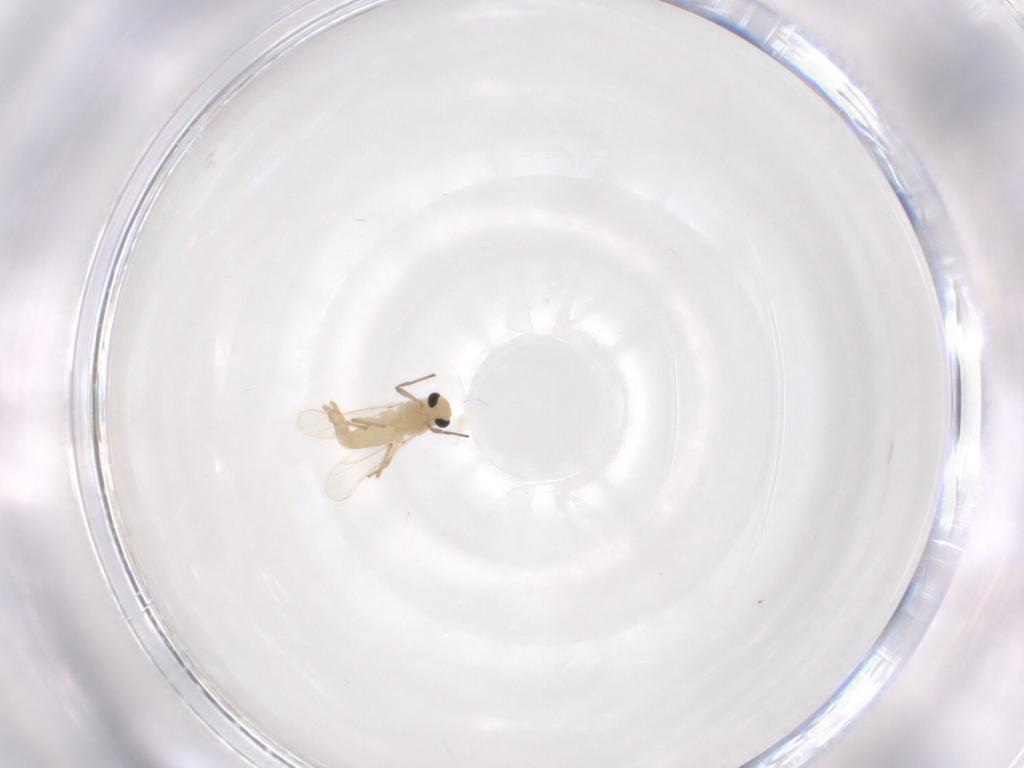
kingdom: Animalia
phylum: Arthropoda
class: Insecta
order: Diptera
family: Chironomidae
